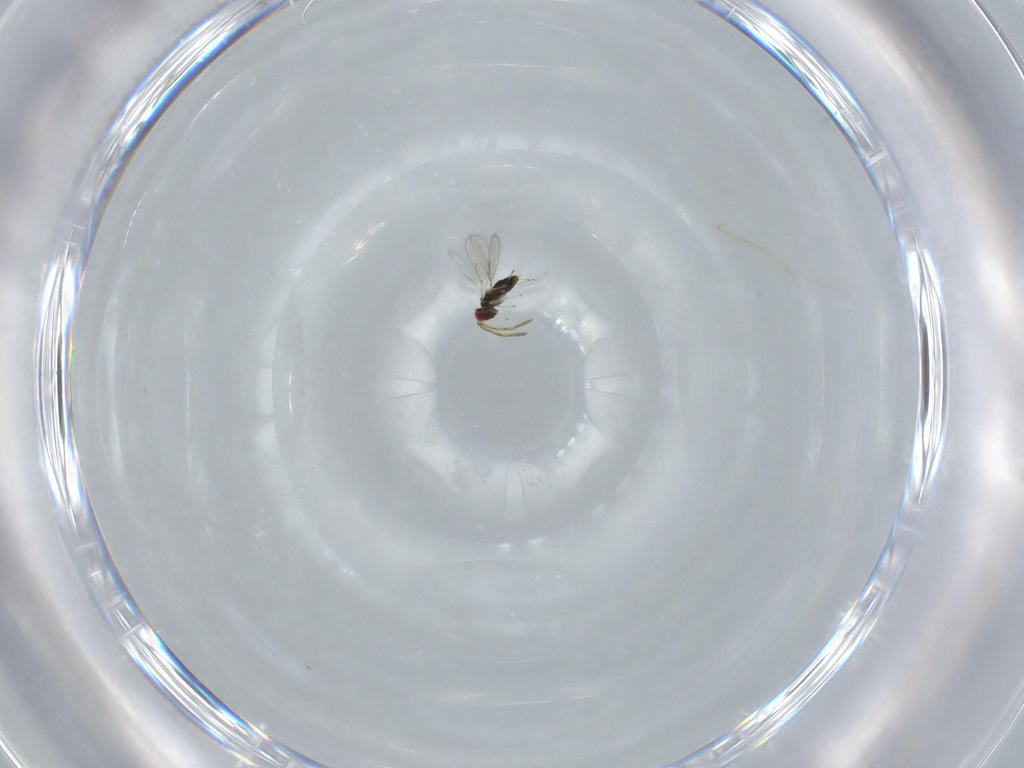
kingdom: Animalia
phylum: Arthropoda
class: Insecta
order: Hymenoptera
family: Azotidae
